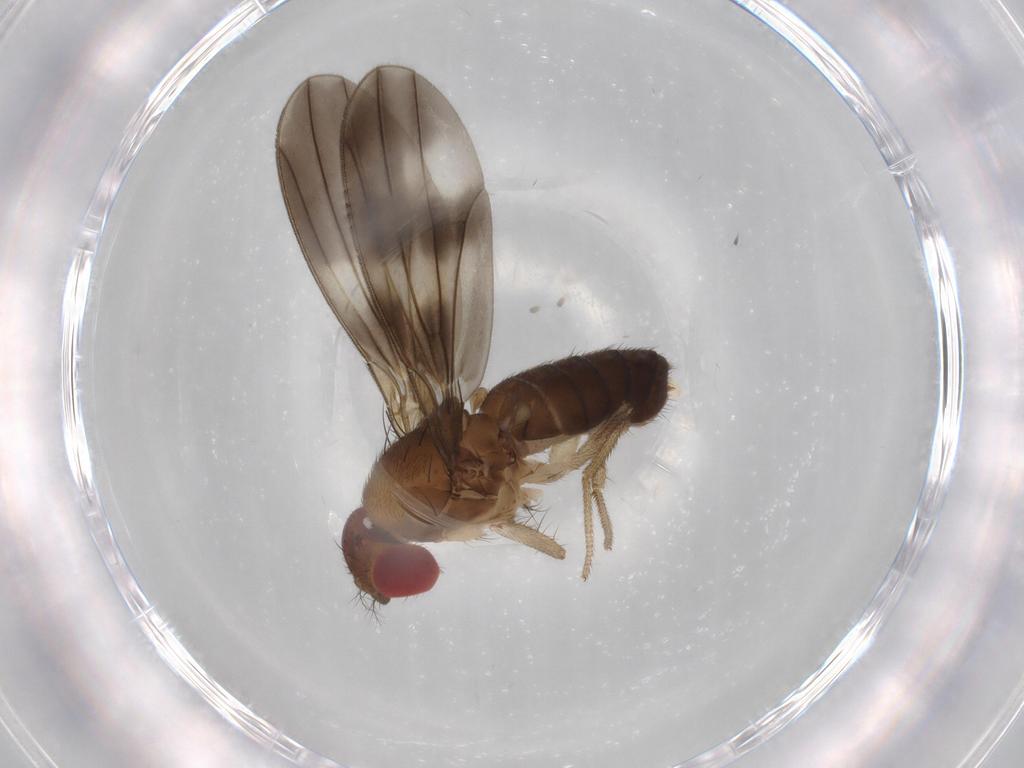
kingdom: Animalia
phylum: Arthropoda
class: Insecta
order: Diptera
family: Drosophilidae
